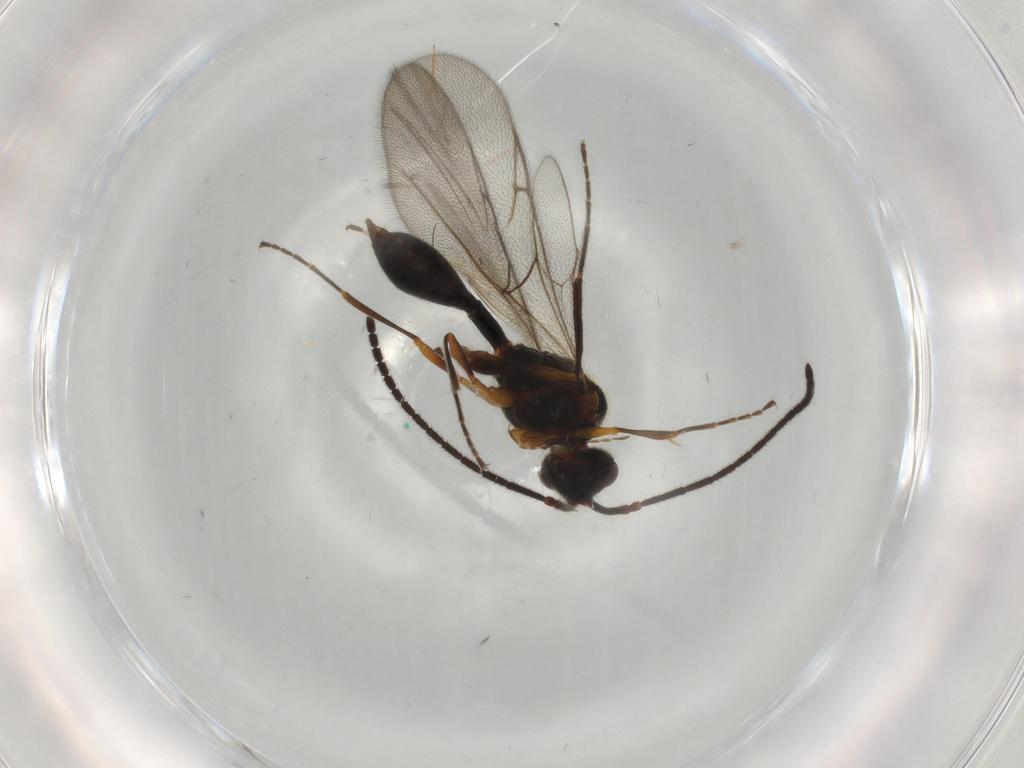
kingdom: Animalia
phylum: Arthropoda
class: Insecta
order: Hymenoptera
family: Diapriidae
